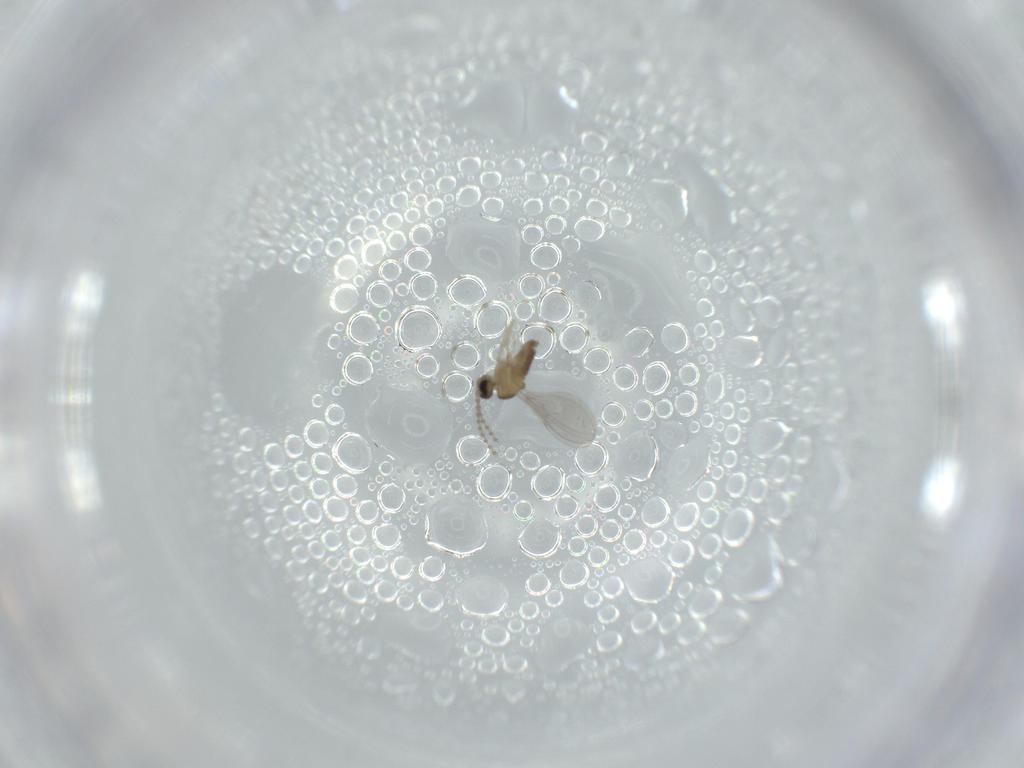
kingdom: Animalia
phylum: Arthropoda
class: Insecta
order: Diptera
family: Cecidomyiidae
